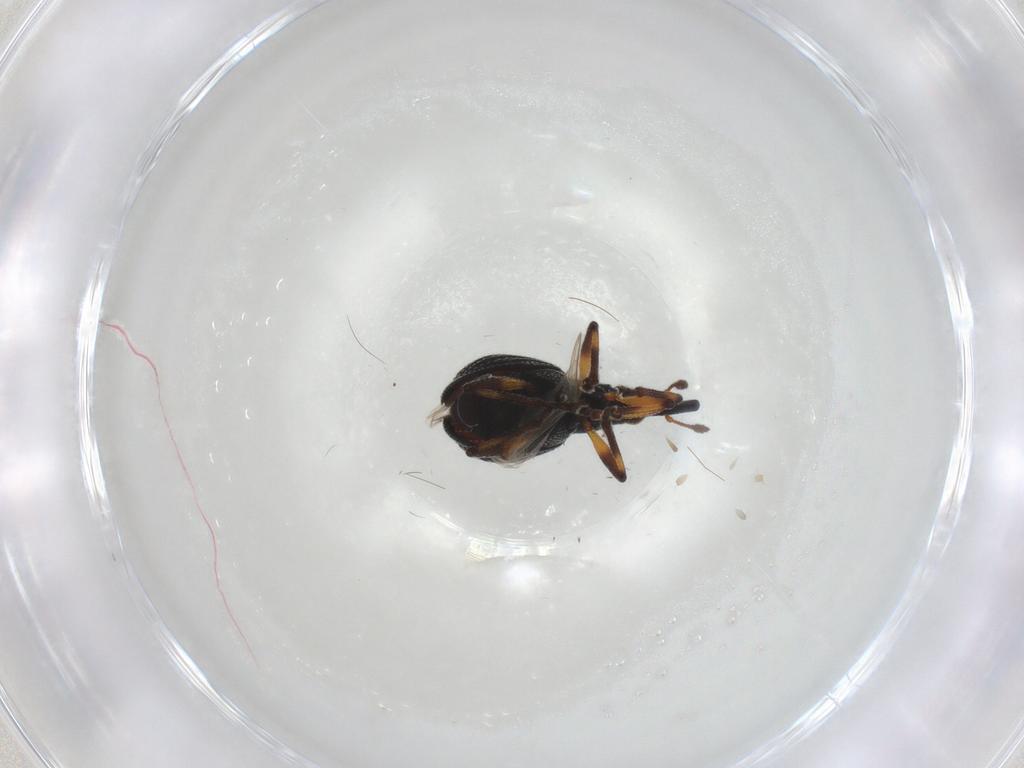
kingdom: Animalia
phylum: Arthropoda
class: Insecta
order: Coleoptera
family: Brentidae
